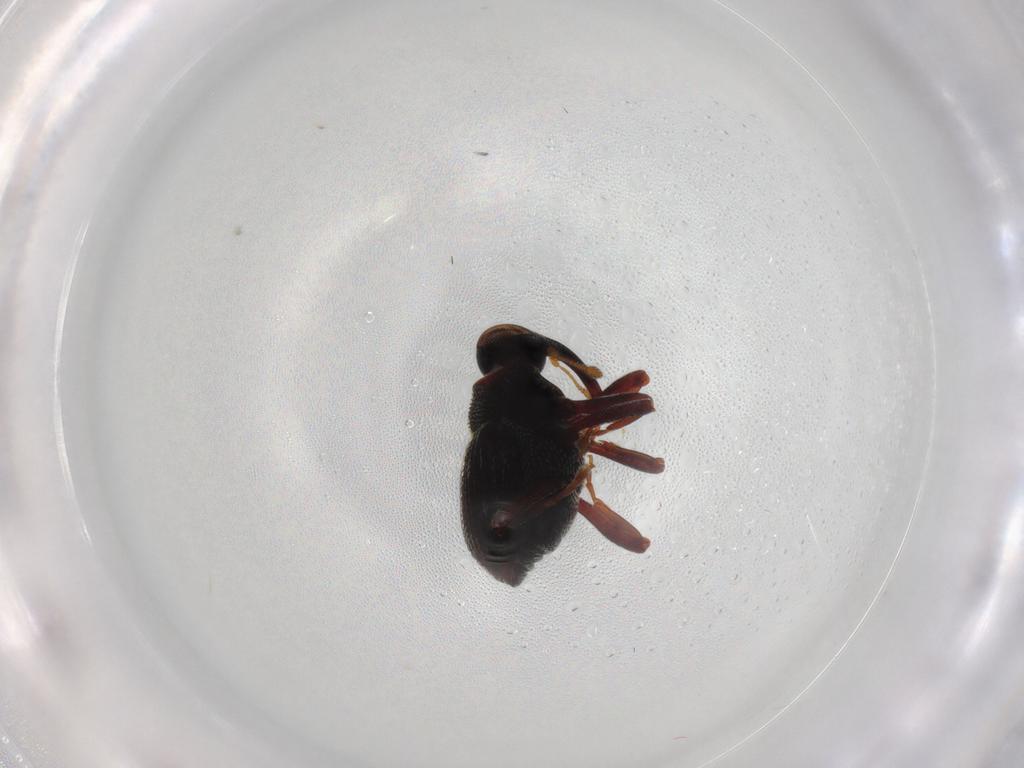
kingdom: Animalia
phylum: Arthropoda
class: Insecta
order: Coleoptera
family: Curculionidae
